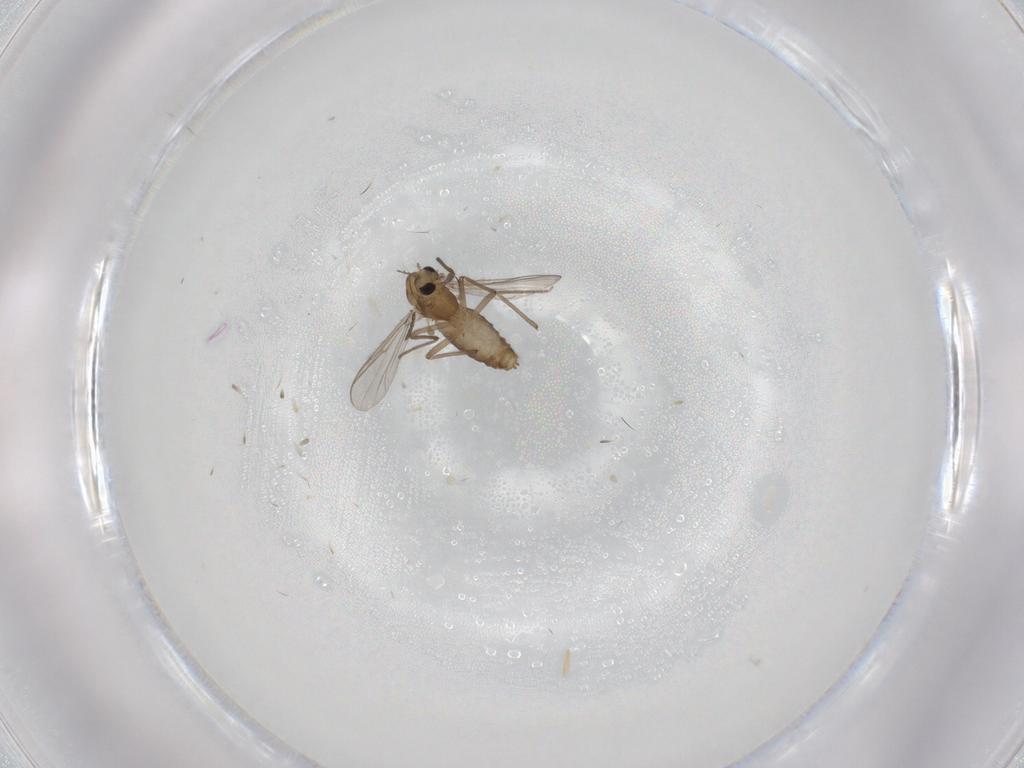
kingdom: Animalia
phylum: Arthropoda
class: Insecta
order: Diptera
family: Chironomidae
